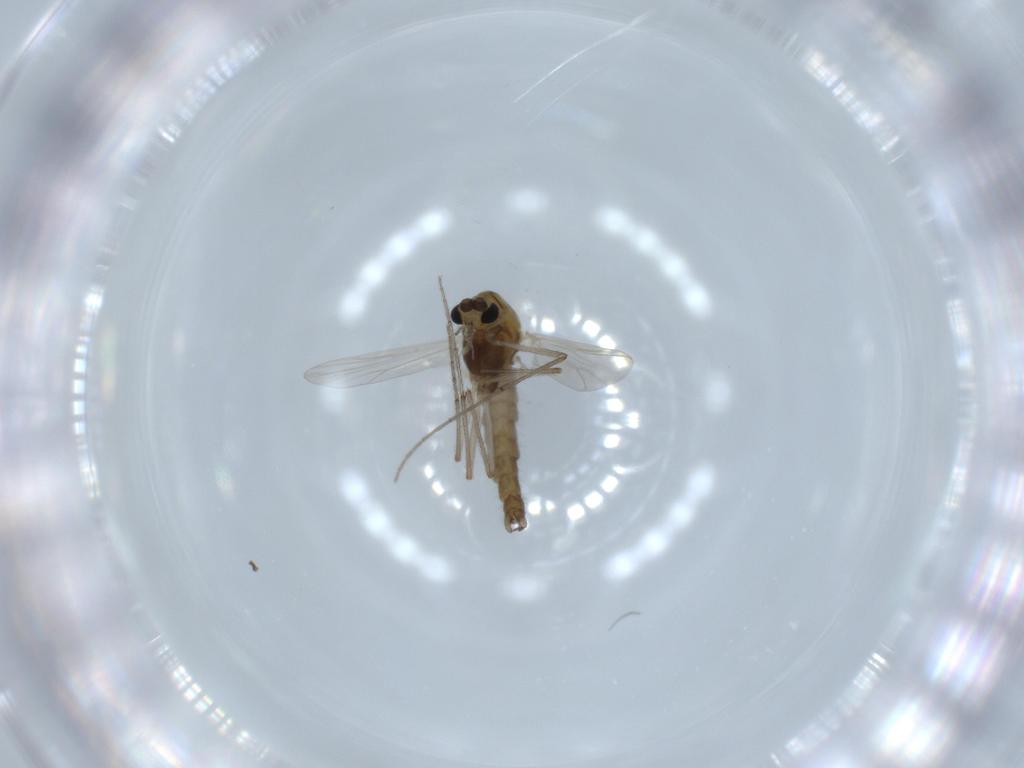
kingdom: Animalia
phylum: Arthropoda
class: Insecta
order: Diptera
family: Chironomidae
